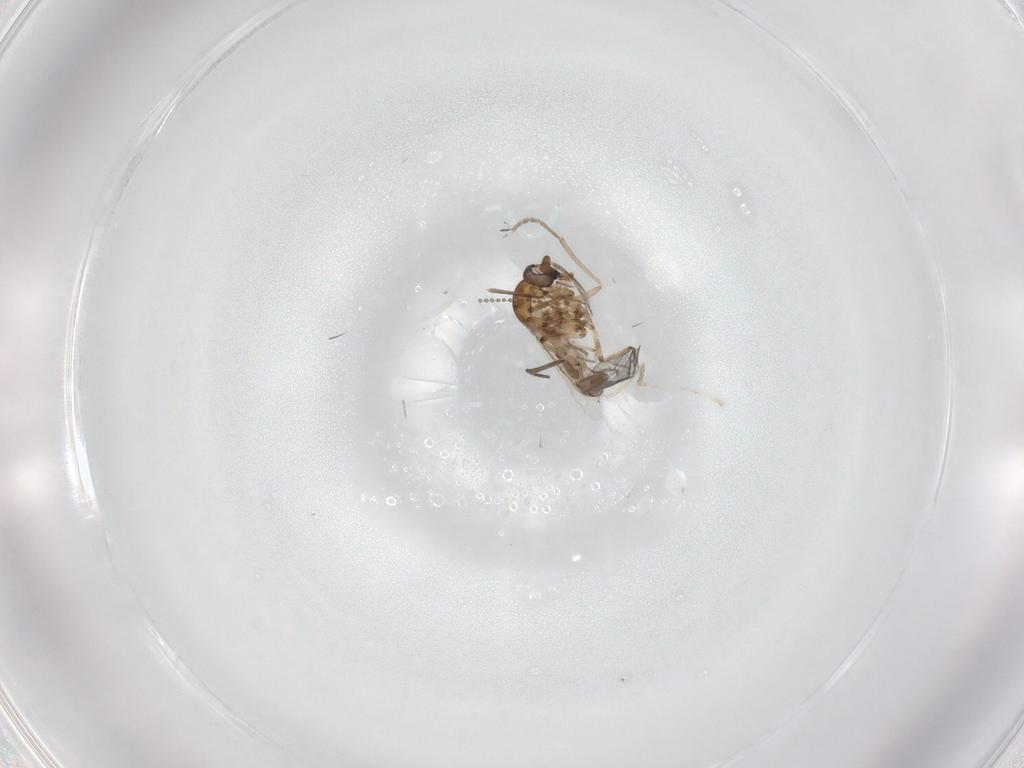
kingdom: Animalia
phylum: Arthropoda
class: Insecta
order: Diptera
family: Ceratopogonidae
